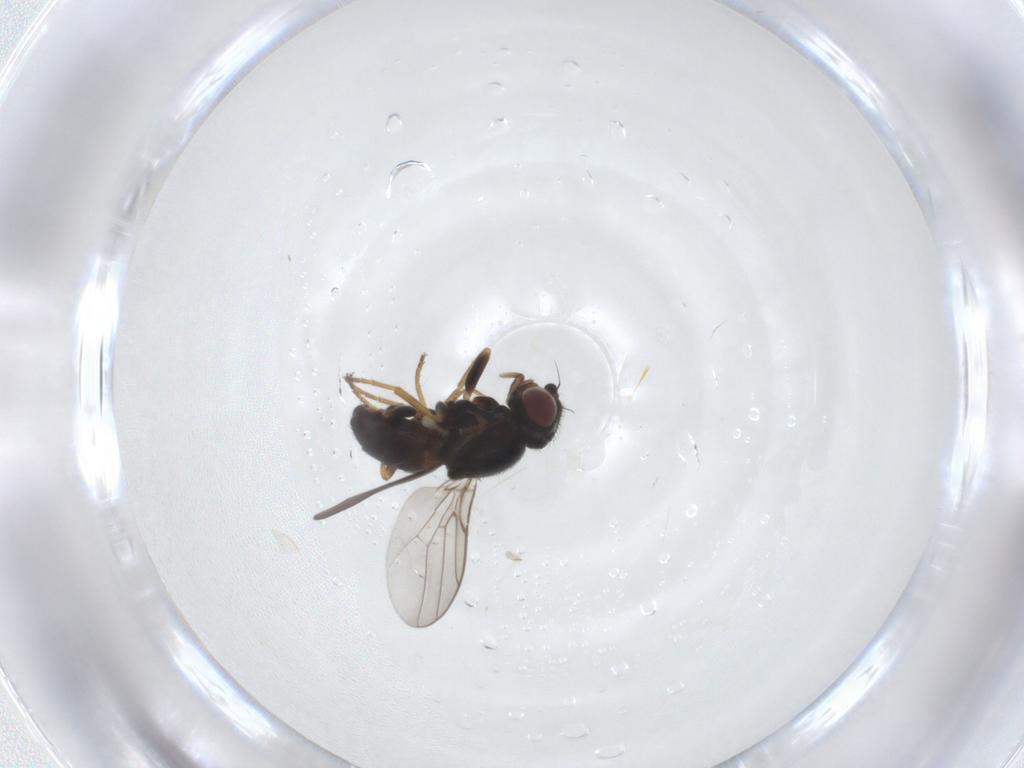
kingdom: Animalia
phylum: Arthropoda
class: Insecta
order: Diptera
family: Chloropidae
